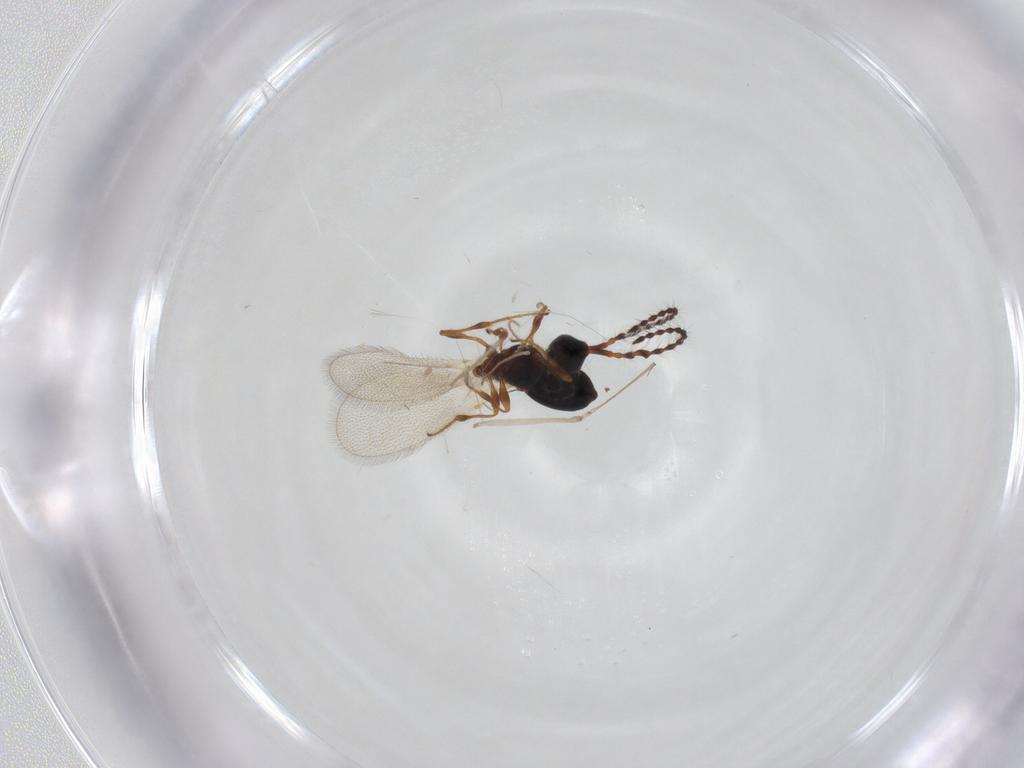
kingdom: Animalia
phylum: Arthropoda
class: Insecta
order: Hymenoptera
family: Diapriidae
